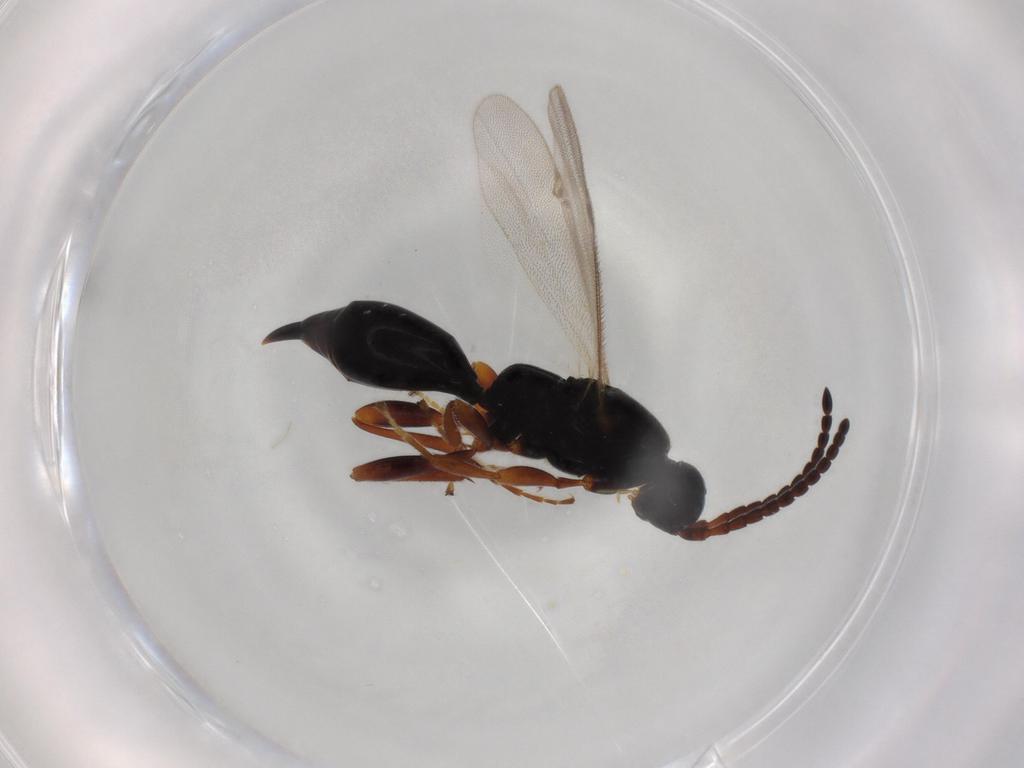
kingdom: Animalia
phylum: Arthropoda
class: Insecta
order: Hymenoptera
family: Proctotrupidae
